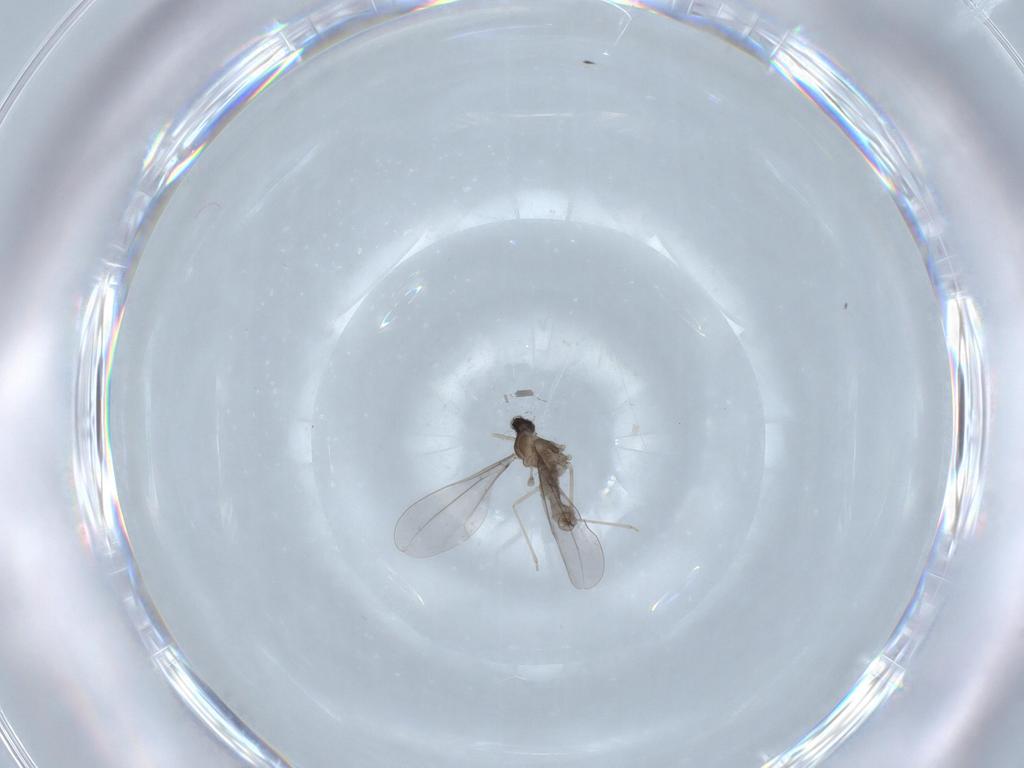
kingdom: Animalia
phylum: Arthropoda
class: Insecta
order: Diptera
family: Cecidomyiidae
